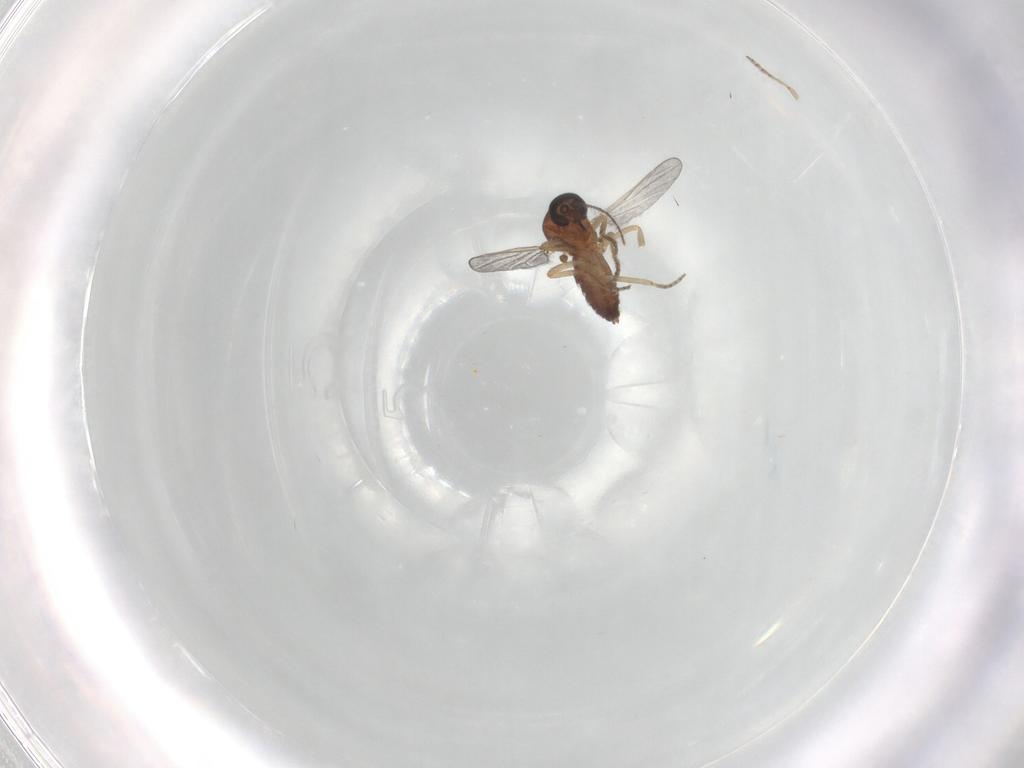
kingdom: Animalia
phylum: Arthropoda
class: Insecta
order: Diptera
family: Ceratopogonidae
